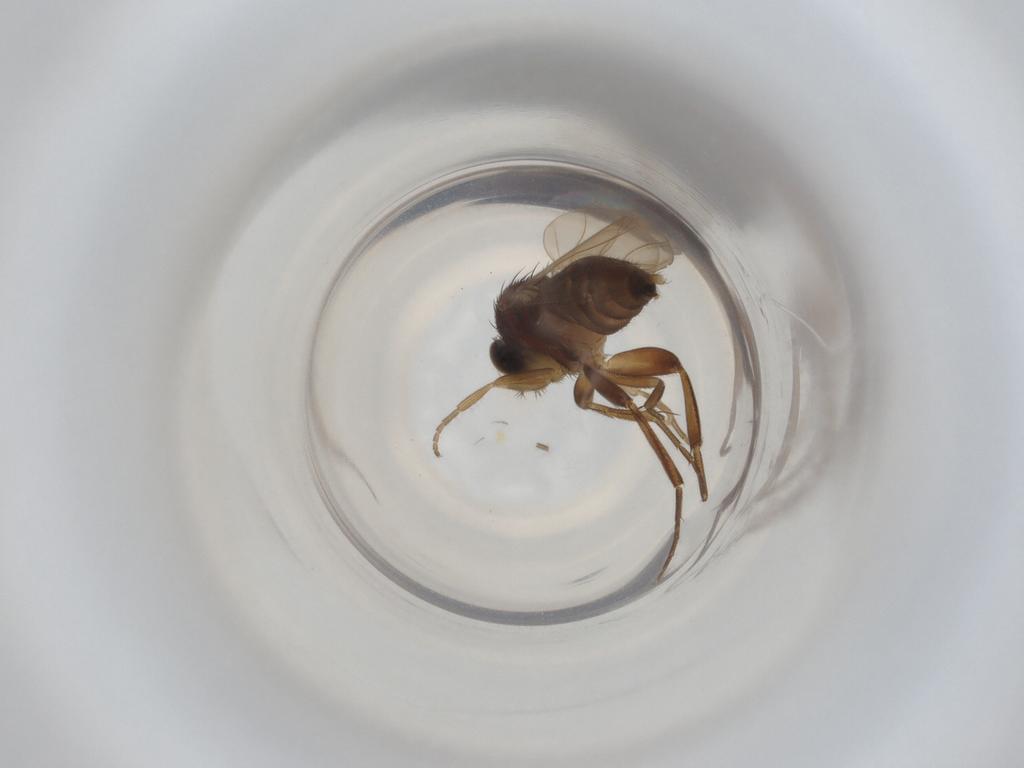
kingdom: Animalia
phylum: Arthropoda
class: Insecta
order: Diptera
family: Phoridae
